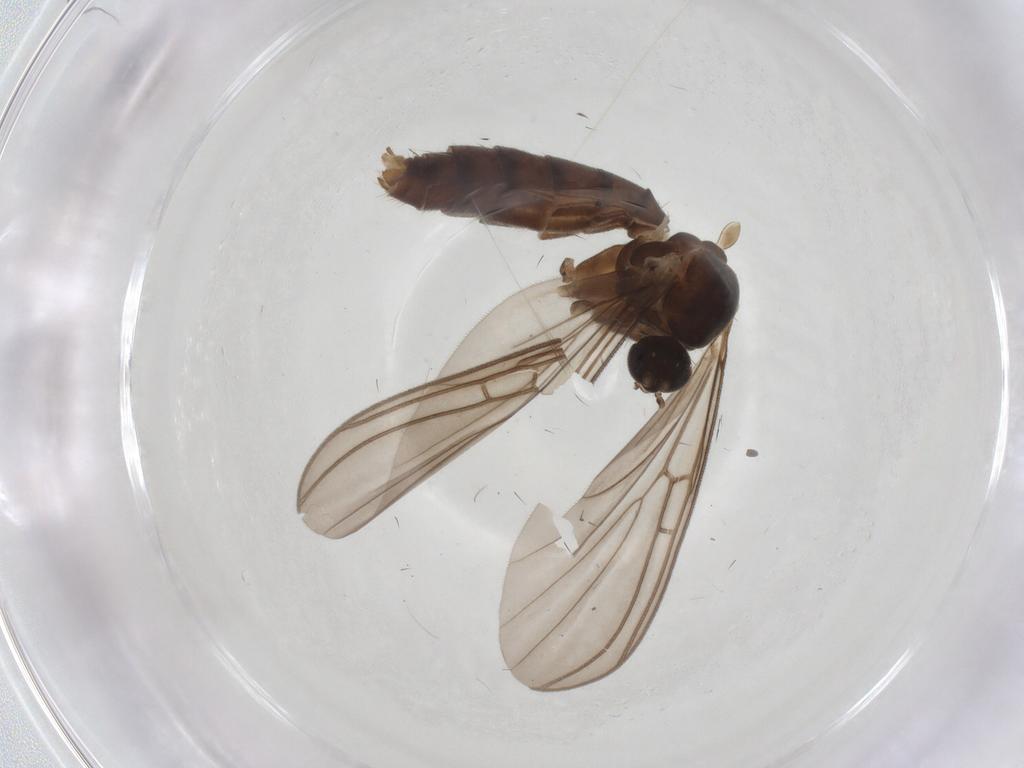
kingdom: Animalia
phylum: Arthropoda
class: Insecta
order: Diptera
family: Mycetophilidae
